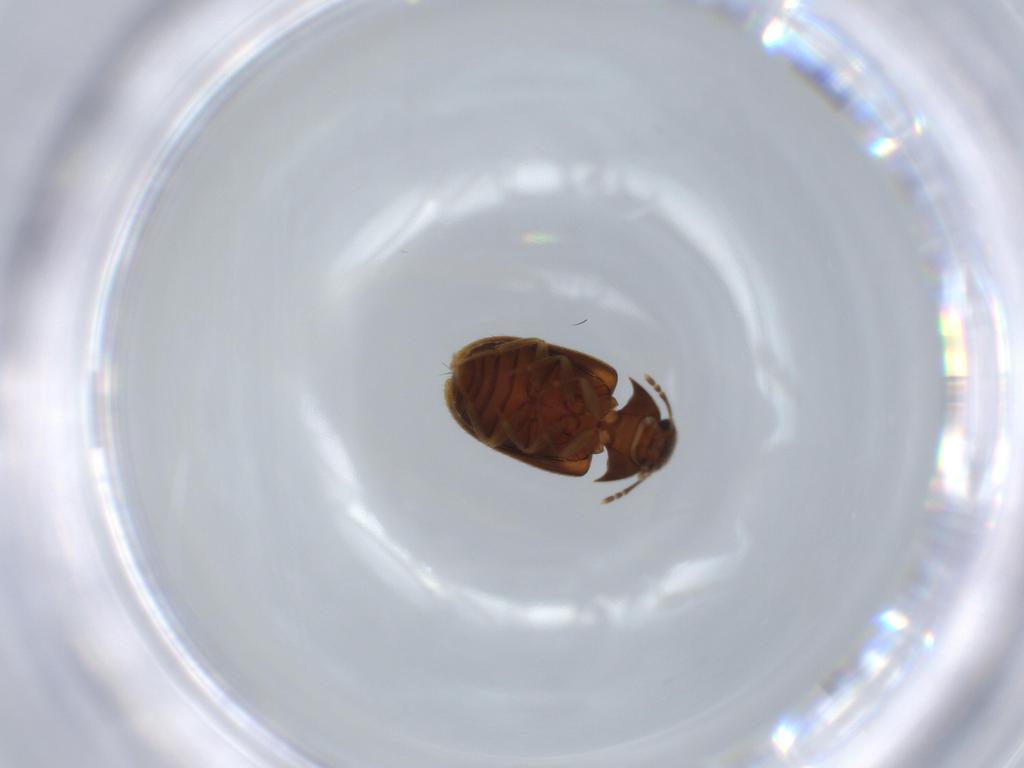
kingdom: Animalia
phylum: Arthropoda
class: Insecta
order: Coleoptera
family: Mycetophagidae
